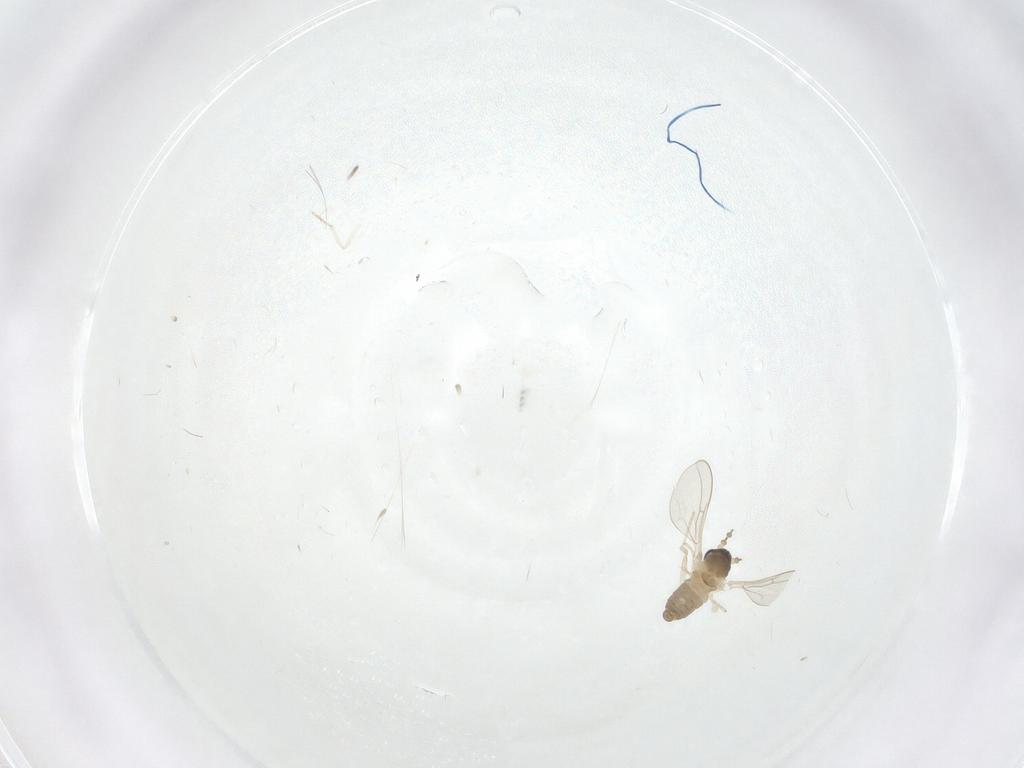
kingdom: Animalia
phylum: Arthropoda
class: Insecta
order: Diptera
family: Cecidomyiidae
